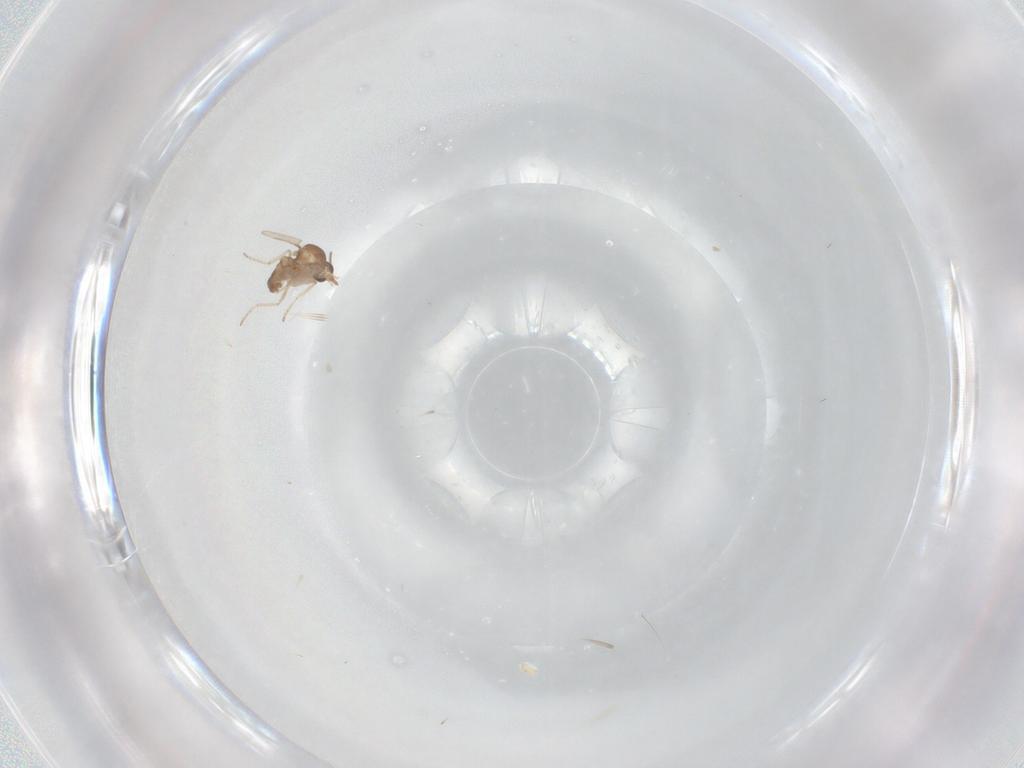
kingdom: Animalia
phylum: Arthropoda
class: Insecta
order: Diptera
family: Ceratopogonidae
